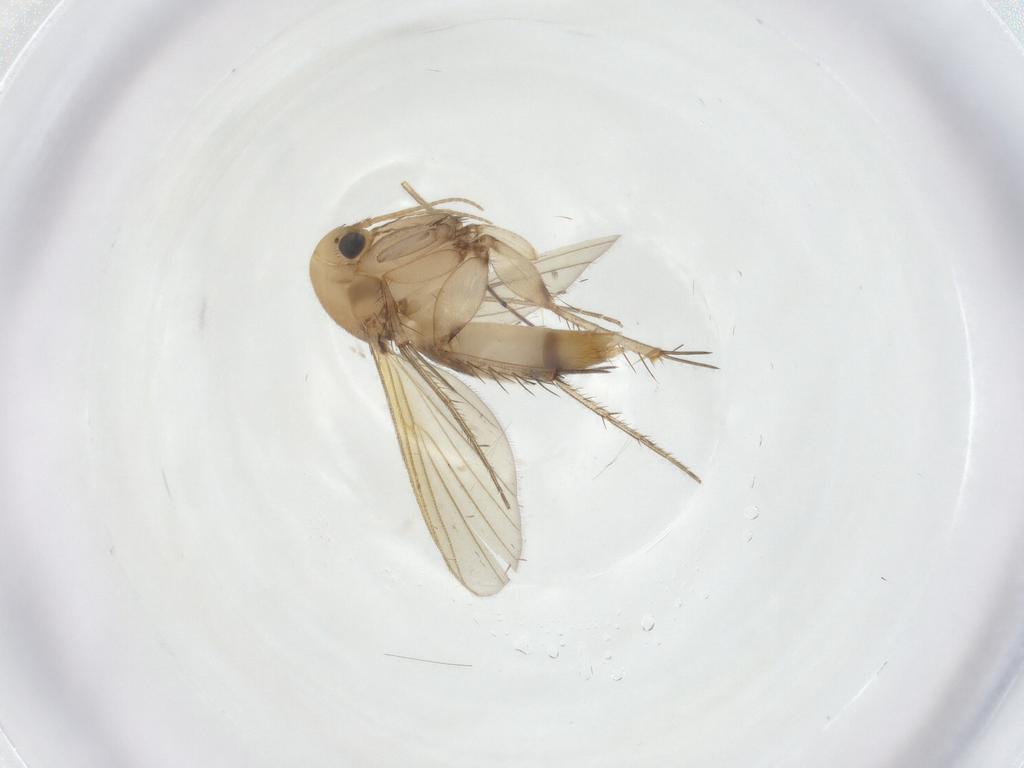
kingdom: Animalia
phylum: Arthropoda
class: Insecta
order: Diptera
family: Mycetophilidae
